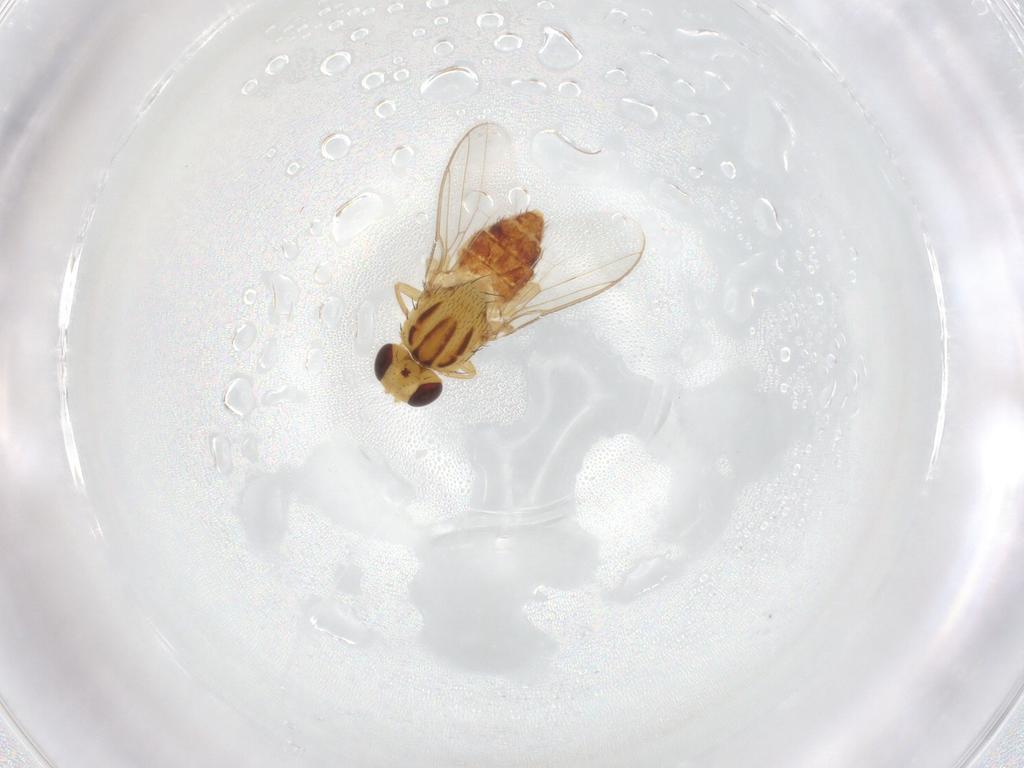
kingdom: Animalia
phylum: Arthropoda
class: Insecta
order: Diptera
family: Chloropidae
